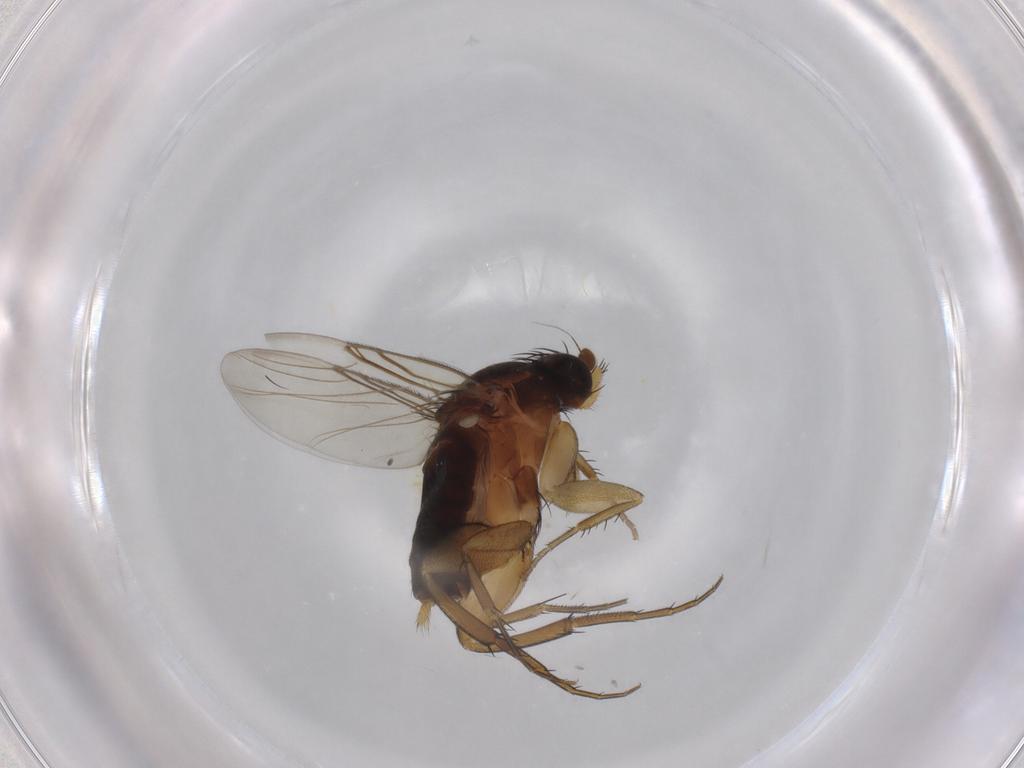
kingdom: Animalia
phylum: Arthropoda
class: Insecta
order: Diptera
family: Phoridae
